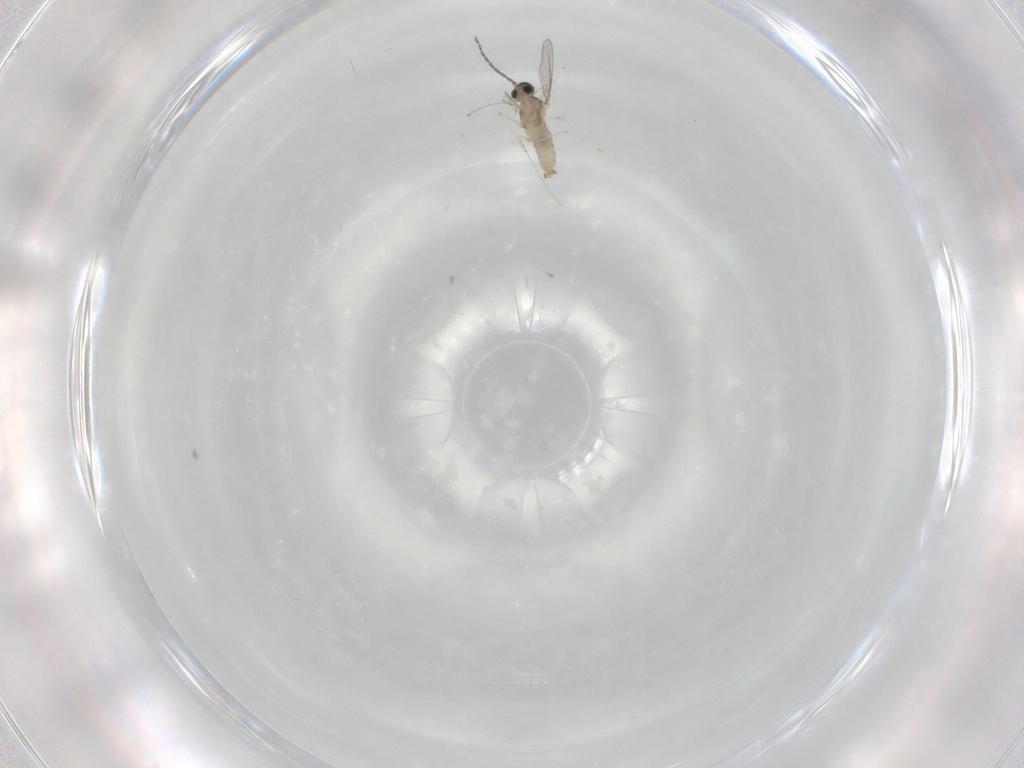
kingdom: Animalia
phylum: Arthropoda
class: Insecta
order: Diptera
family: Cecidomyiidae
